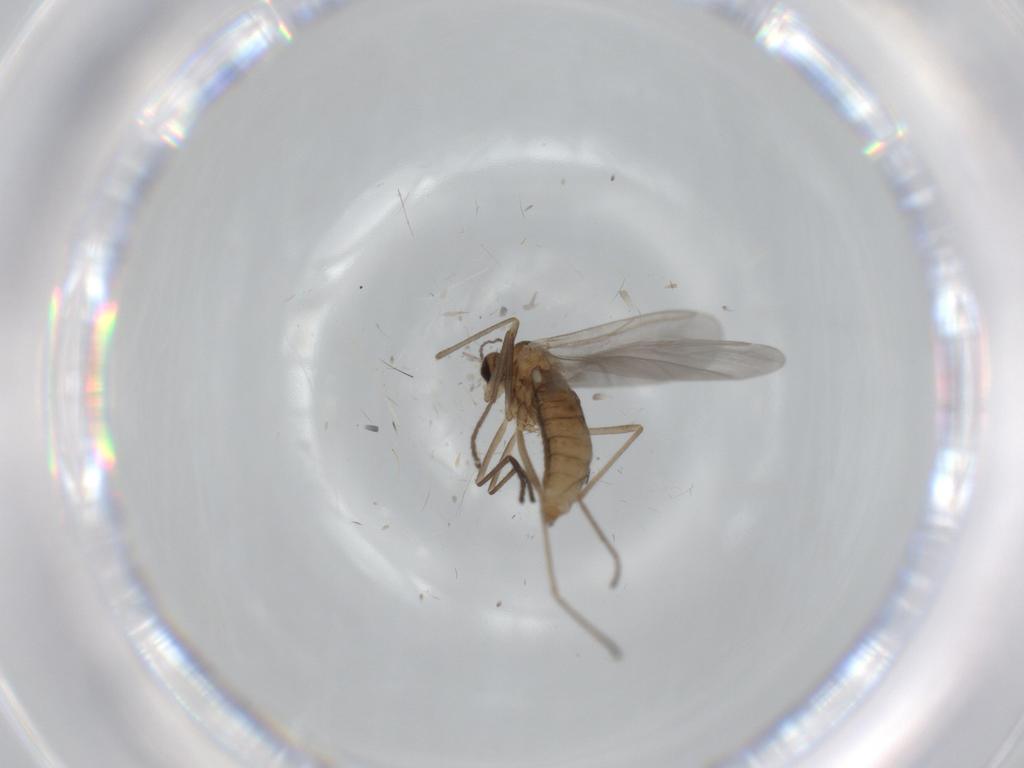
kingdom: Animalia
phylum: Arthropoda
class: Insecta
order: Diptera
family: Cecidomyiidae
